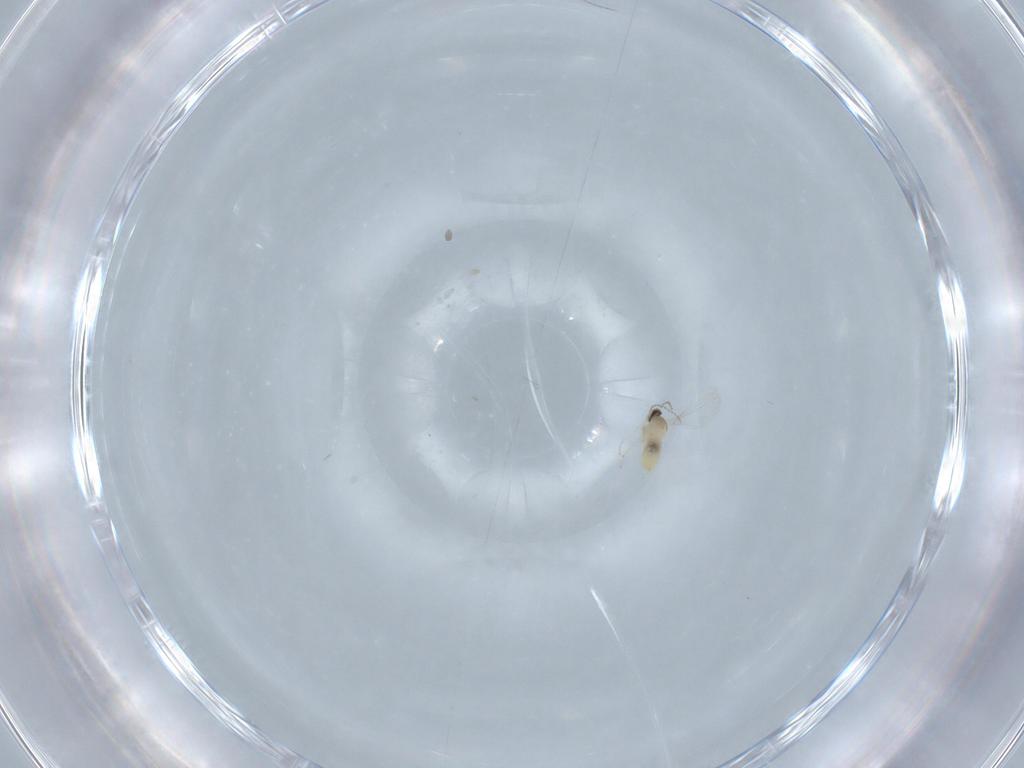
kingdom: Animalia
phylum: Arthropoda
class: Insecta
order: Diptera
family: Cecidomyiidae
